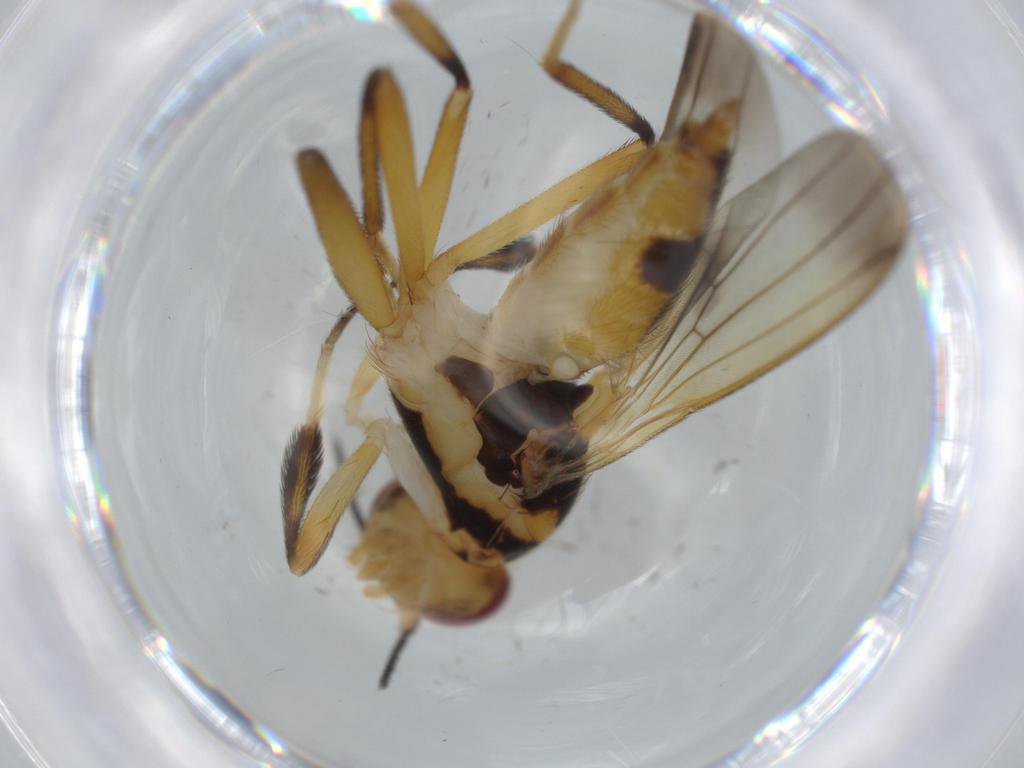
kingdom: Animalia
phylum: Arthropoda
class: Insecta
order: Diptera
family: Clusiidae
